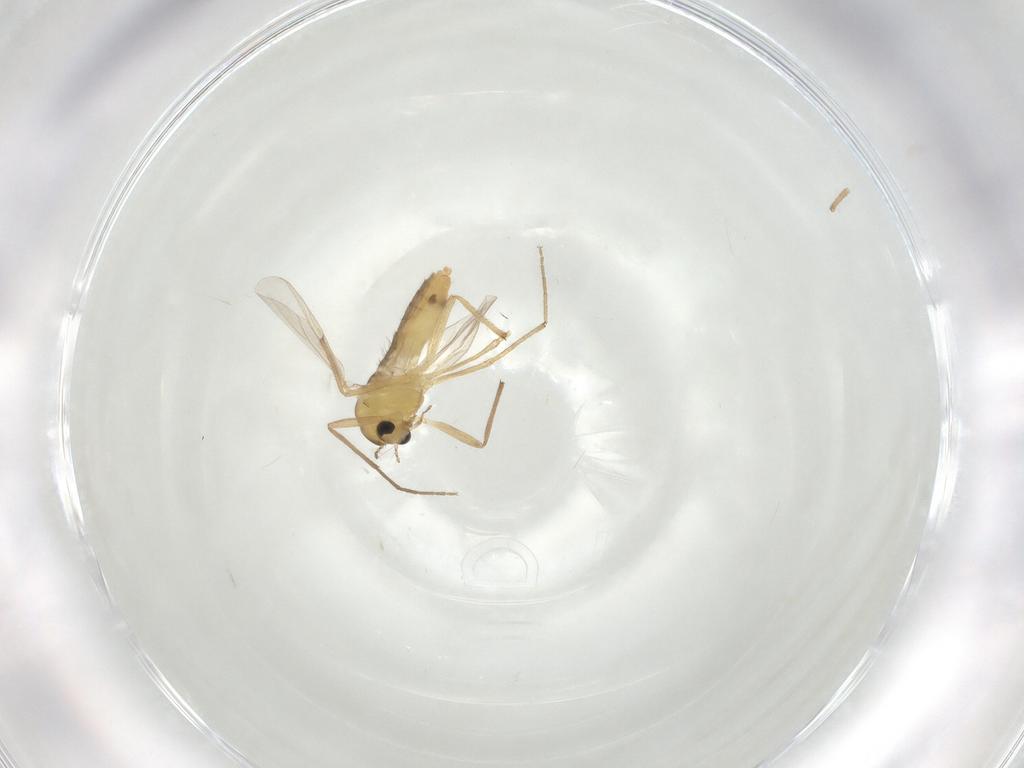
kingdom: Animalia
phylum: Arthropoda
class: Insecta
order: Diptera
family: Chironomidae
